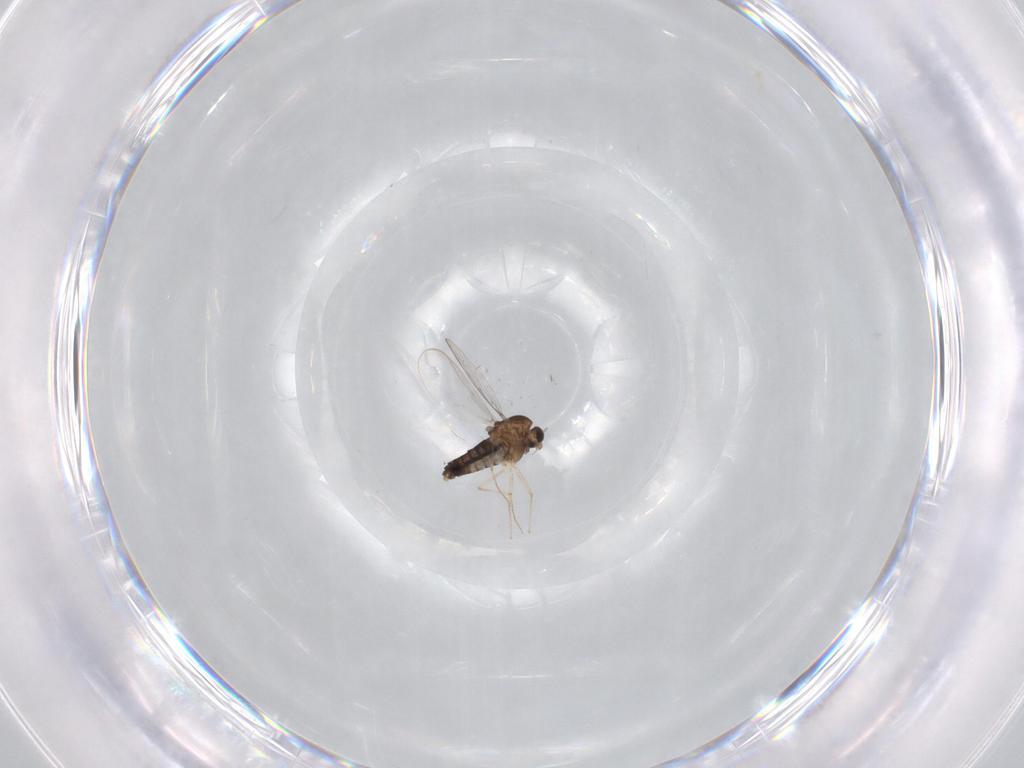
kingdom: Animalia
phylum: Arthropoda
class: Insecta
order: Diptera
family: Chironomidae
